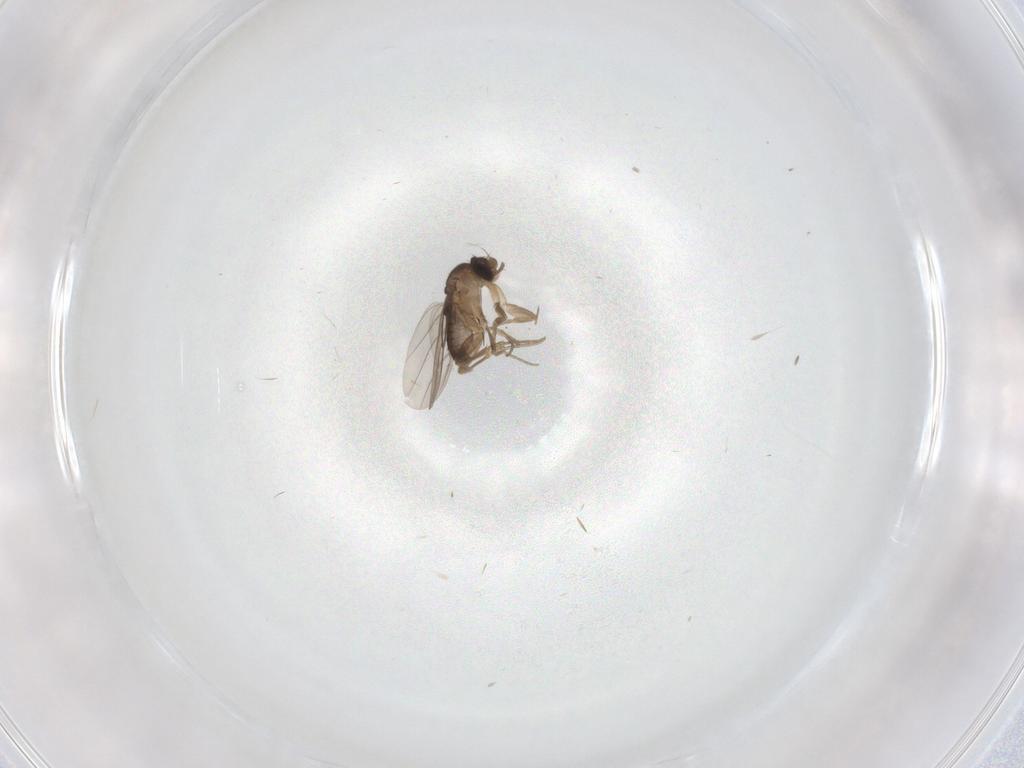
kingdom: Animalia
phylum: Arthropoda
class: Insecta
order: Diptera
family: Phoridae
